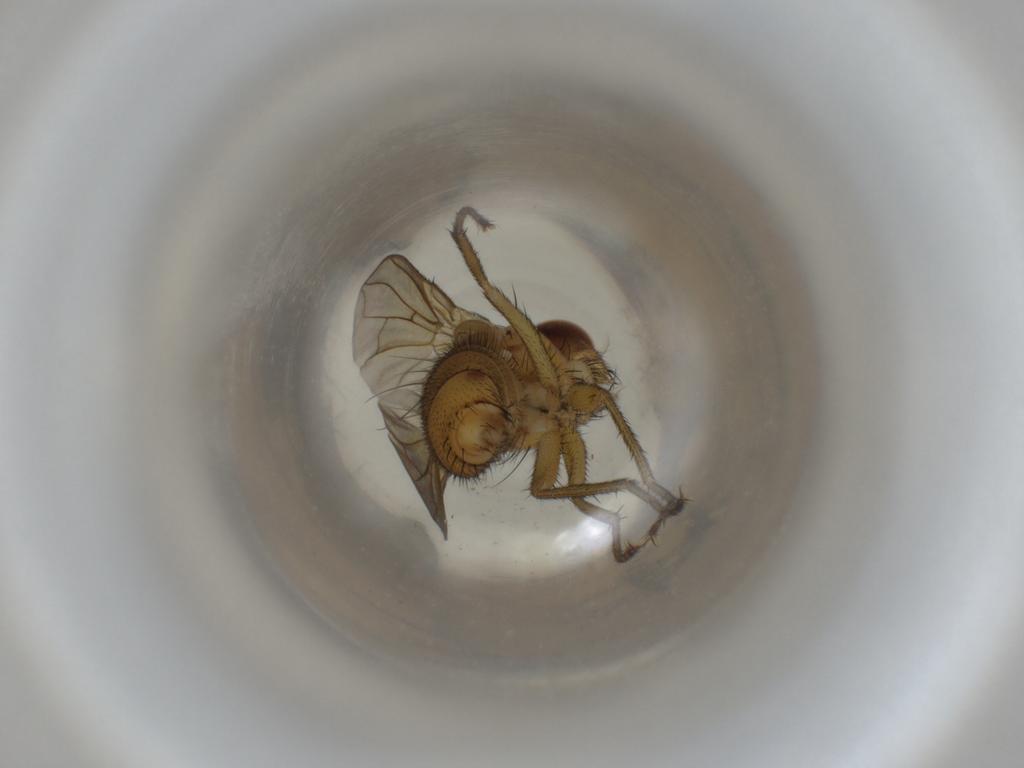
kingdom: Animalia
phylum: Arthropoda
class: Insecta
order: Diptera
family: Calliphoridae
